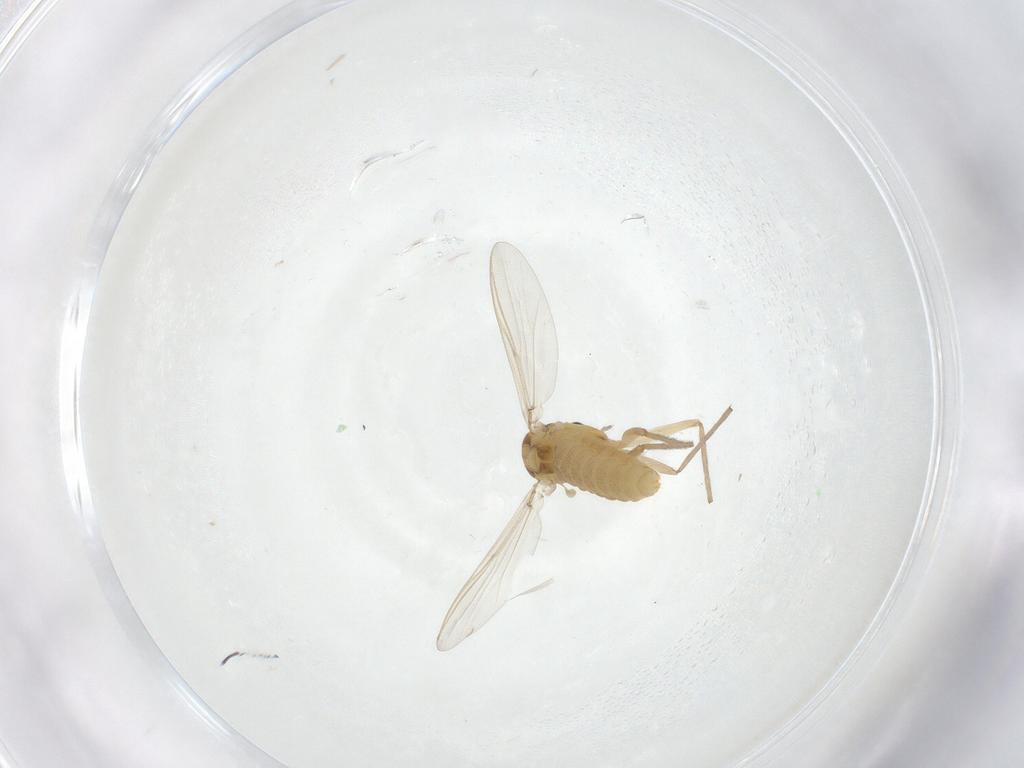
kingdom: Animalia
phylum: Arthropoda
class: Insecta
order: Diptera
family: Chironomidae
